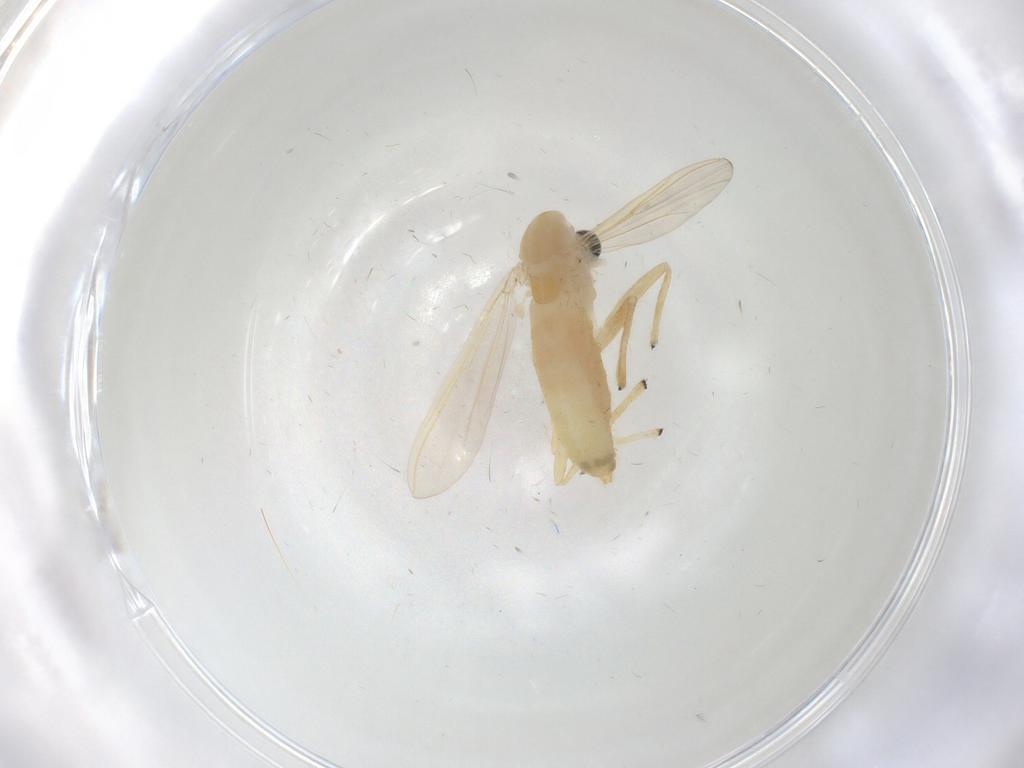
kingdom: Animalia
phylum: Arthropoda
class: Insecta
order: Diptera
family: Chironomidae
